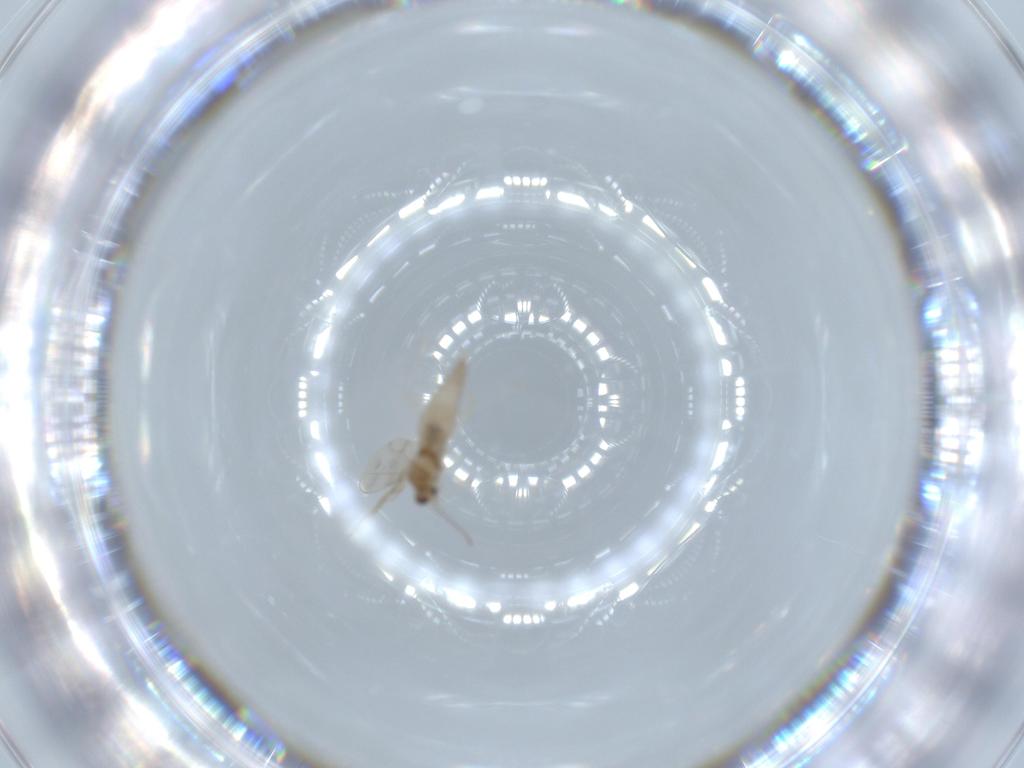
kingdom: Animalia
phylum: Arthropoda
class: Insecta
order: Diptera
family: Cecidomyiidae
